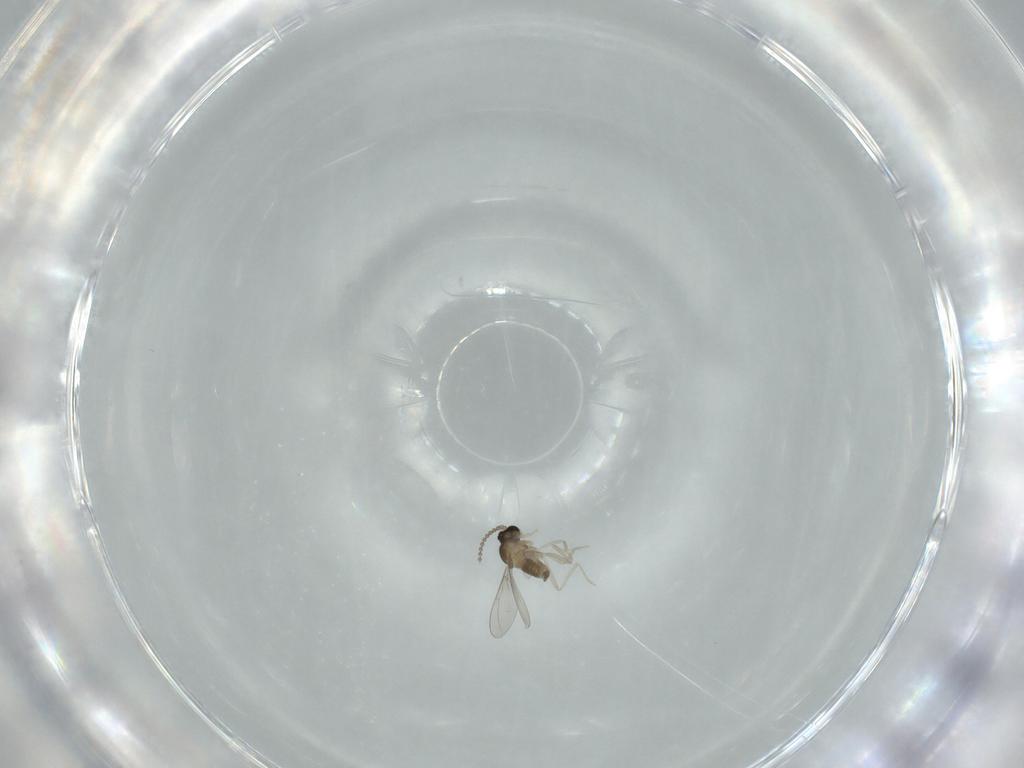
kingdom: Animalia
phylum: Arthropoda
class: Insecta
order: Diptera
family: Cecidomyiidae
